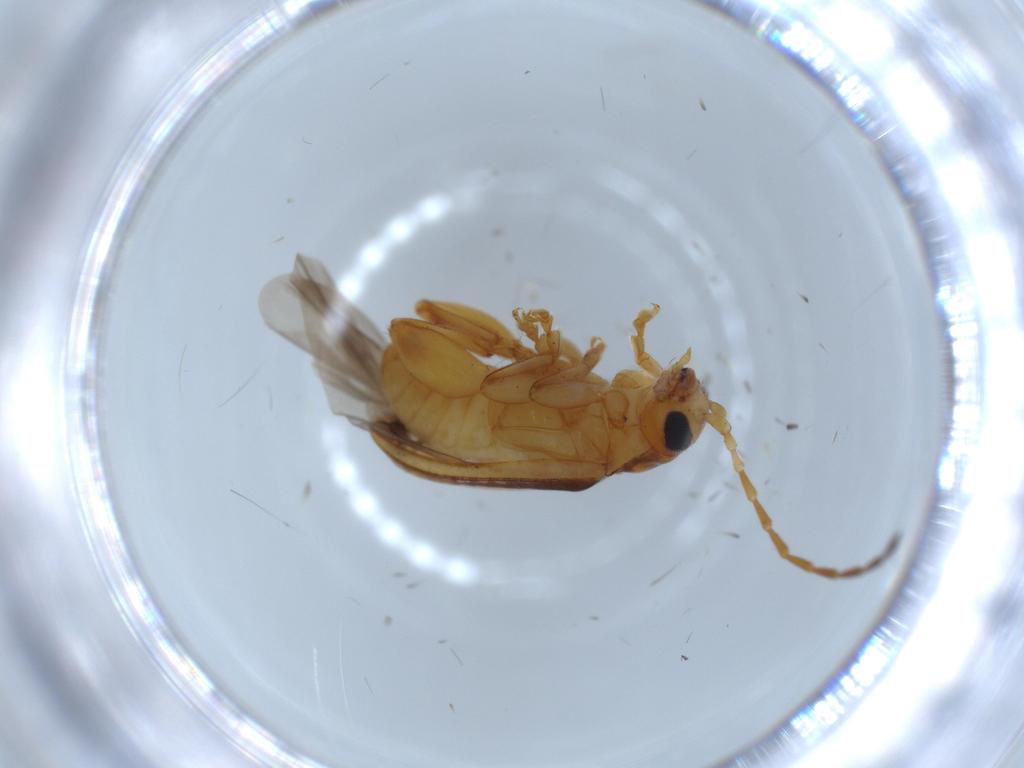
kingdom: Animalia
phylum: Arthropoda
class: Insecta
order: Coleoptera
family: Chrysomelidae
